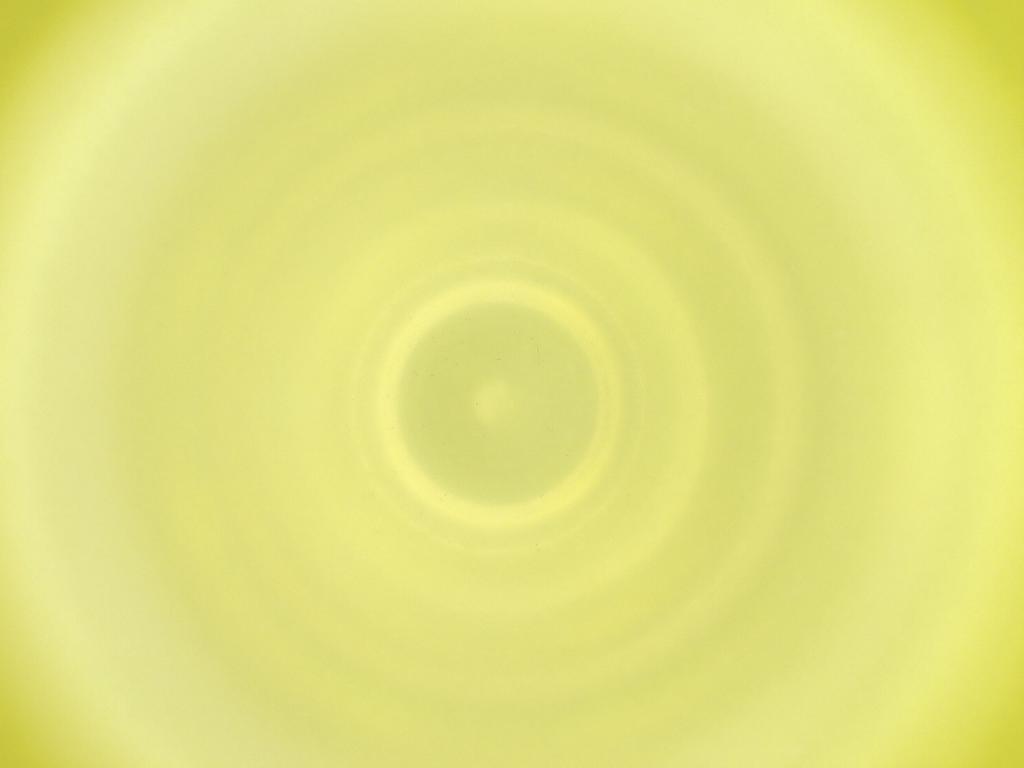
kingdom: Animalia
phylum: Arthropoda
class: Insecta
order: Diptera
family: Cecidomyiidae
